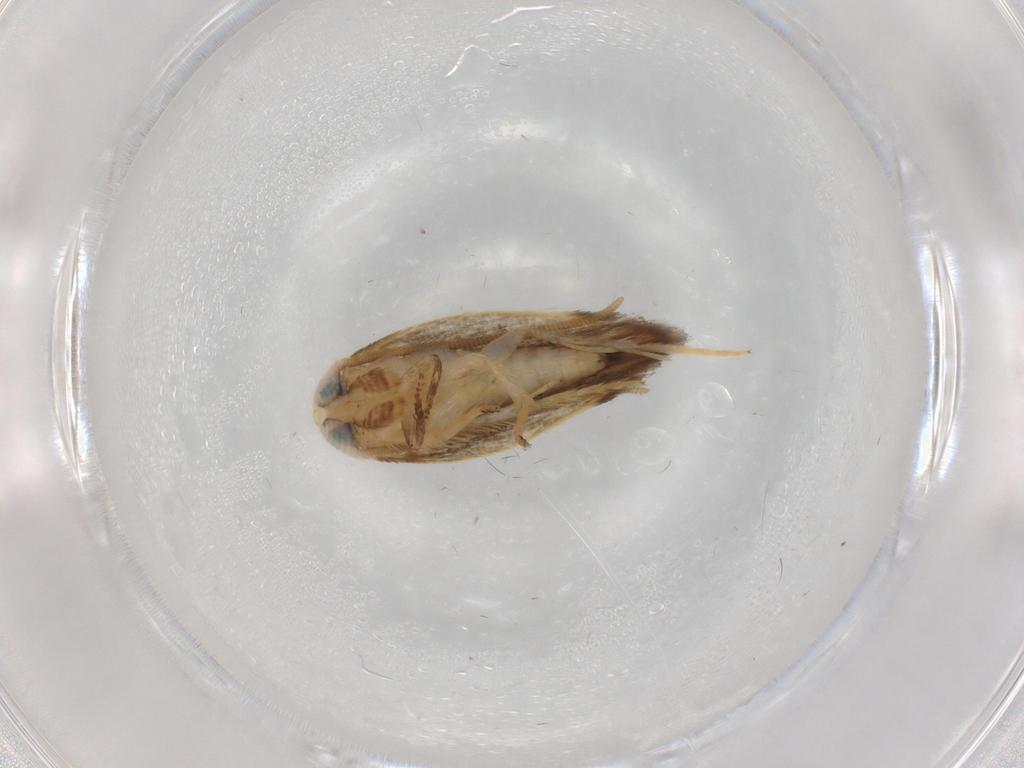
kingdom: Animalia
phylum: Arthropoda
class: Insecta
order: Lepidoptera
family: Opostegidae
